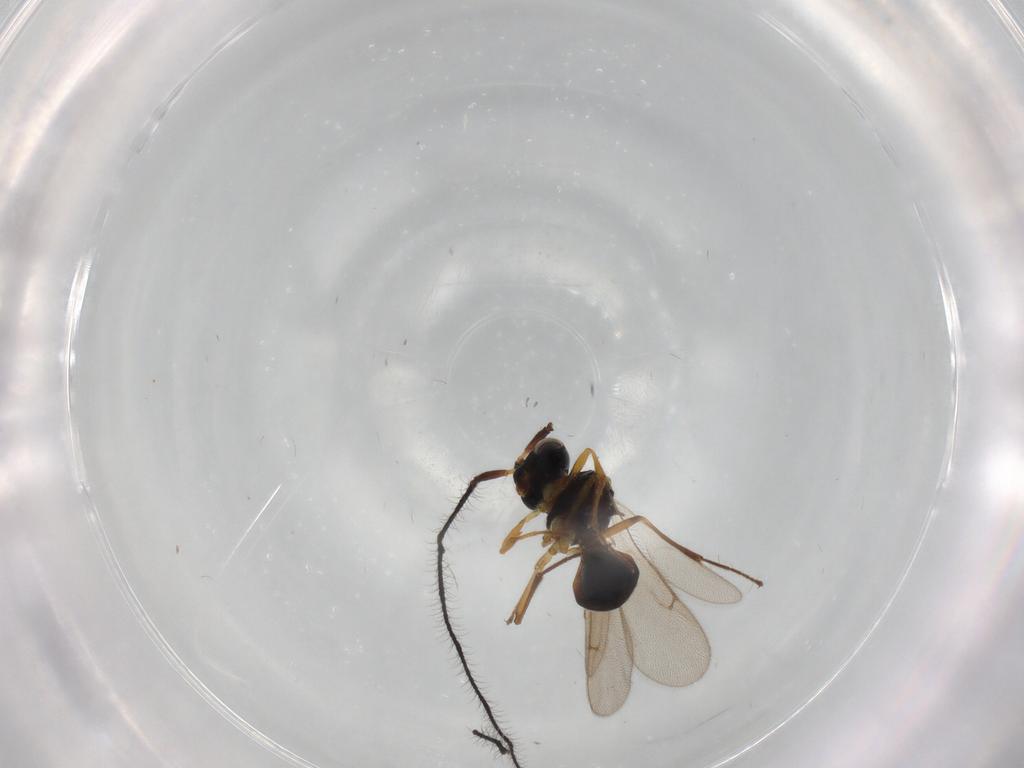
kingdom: Animalia
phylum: Arthropoda
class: Insecta
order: Hymenoptera
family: Scelionidae
